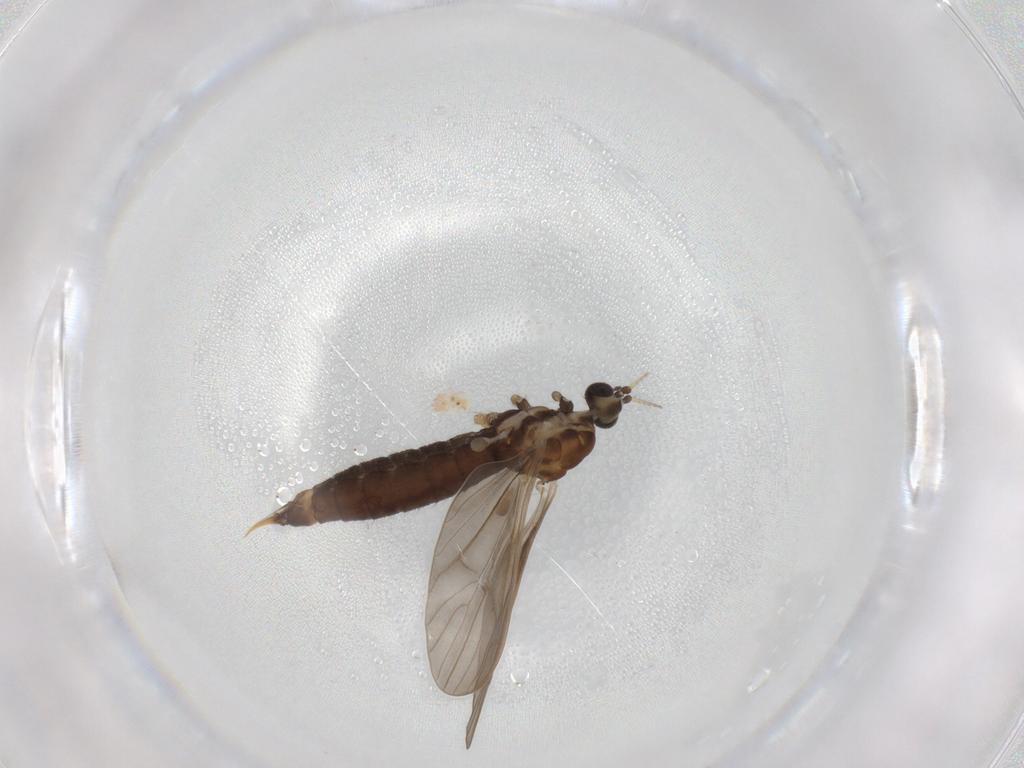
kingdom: Animalia
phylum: Arthropoda
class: Insecta
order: Diptera
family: Limoniidae
